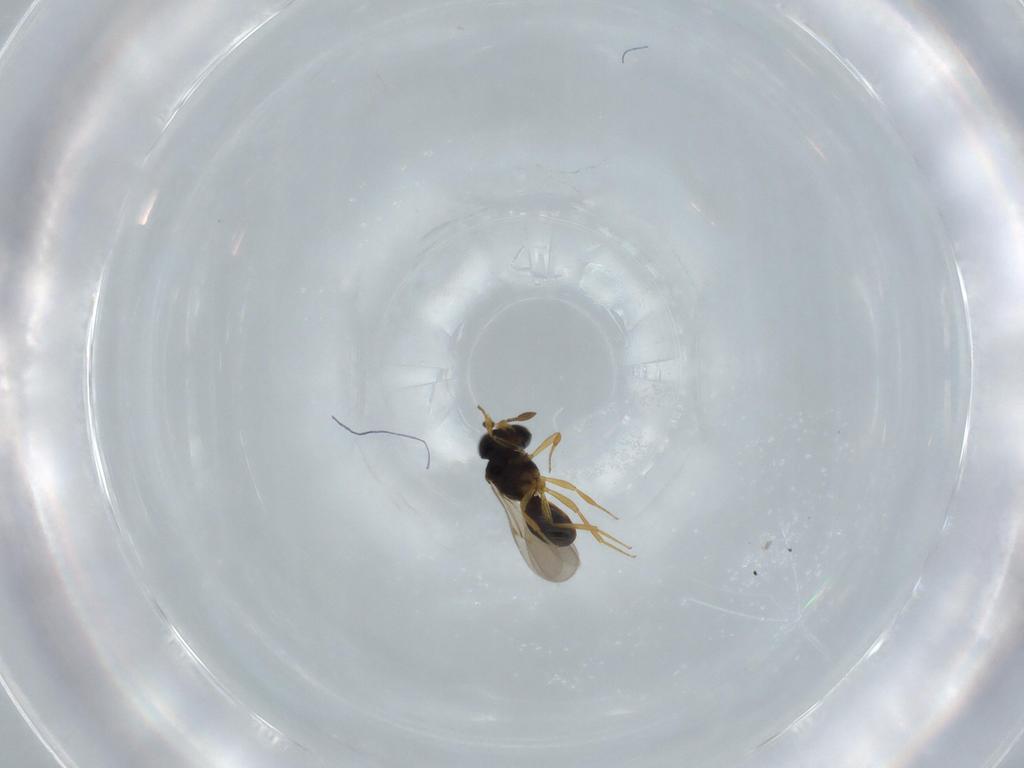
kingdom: Animalia
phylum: Arthropoda
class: Insecta
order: Hymenoptera
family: Scelionidae
